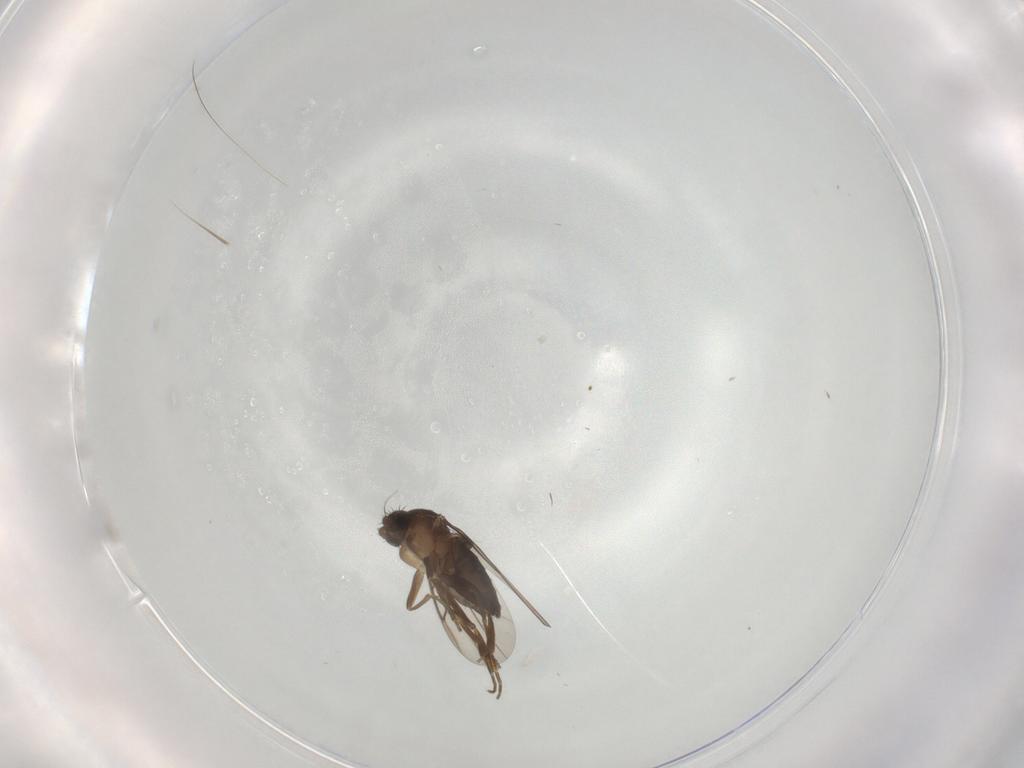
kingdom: Animalia
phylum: Arthropoda
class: Insecta
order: Diptera
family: Phoridae
